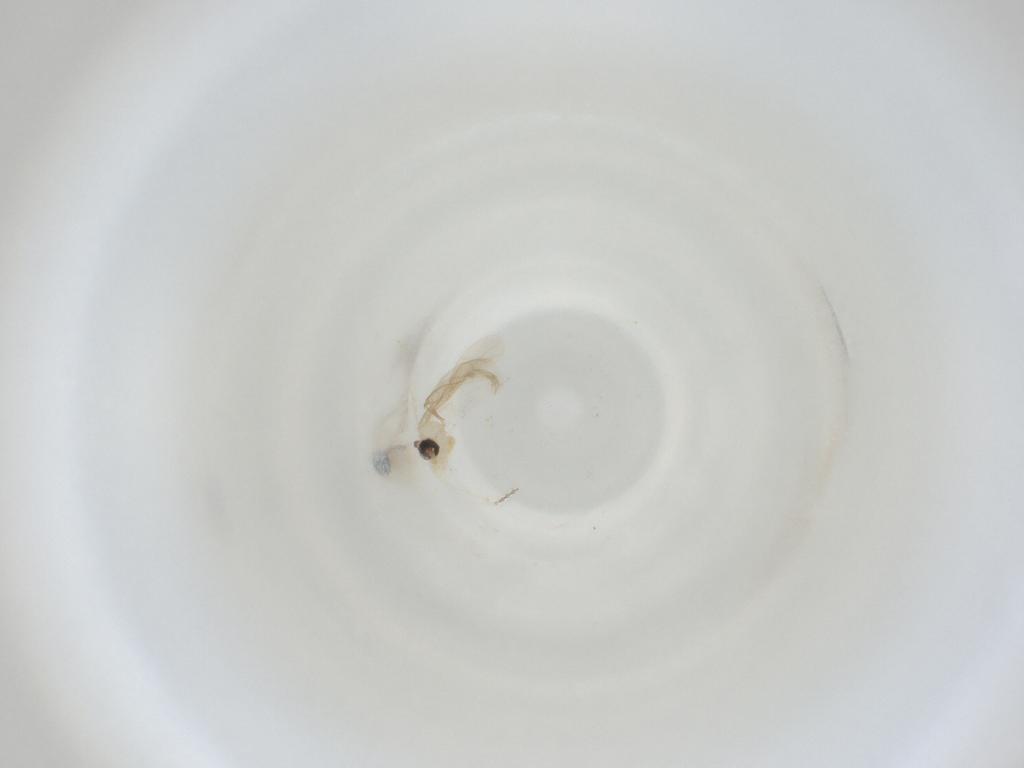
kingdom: Animalia
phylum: Arthropoda
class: Insecta
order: Diptera
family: Cecidomyiidae
